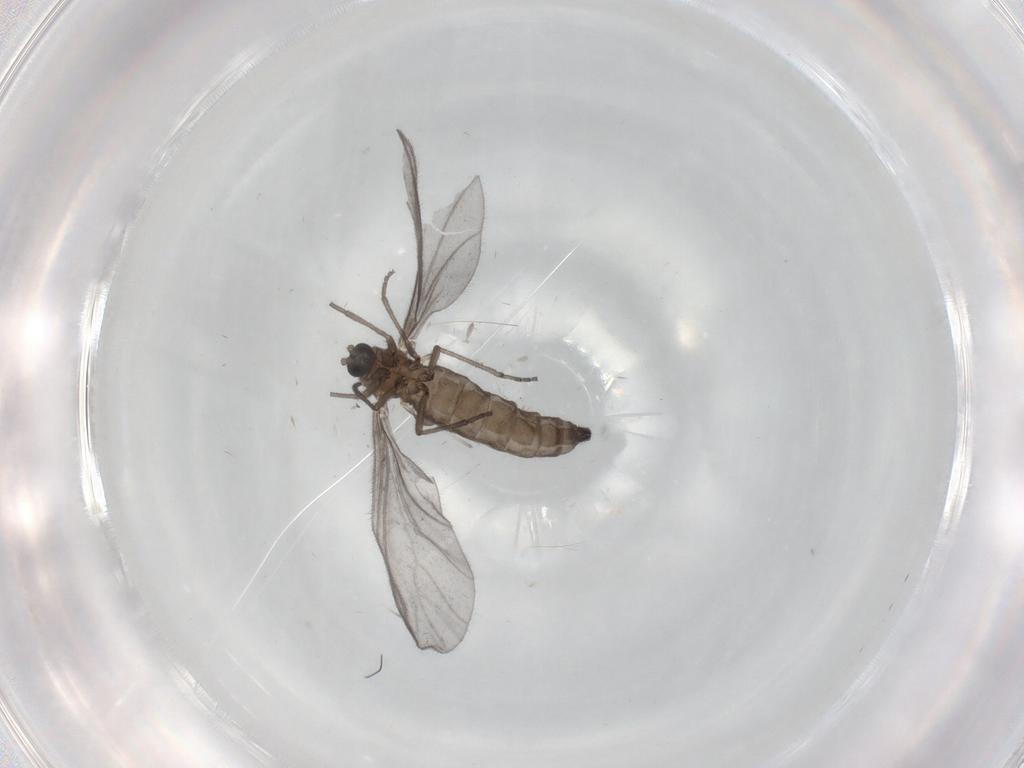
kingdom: Animalia
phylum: Arthropoda
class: Insecta
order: Diptera
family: Sciaridae
